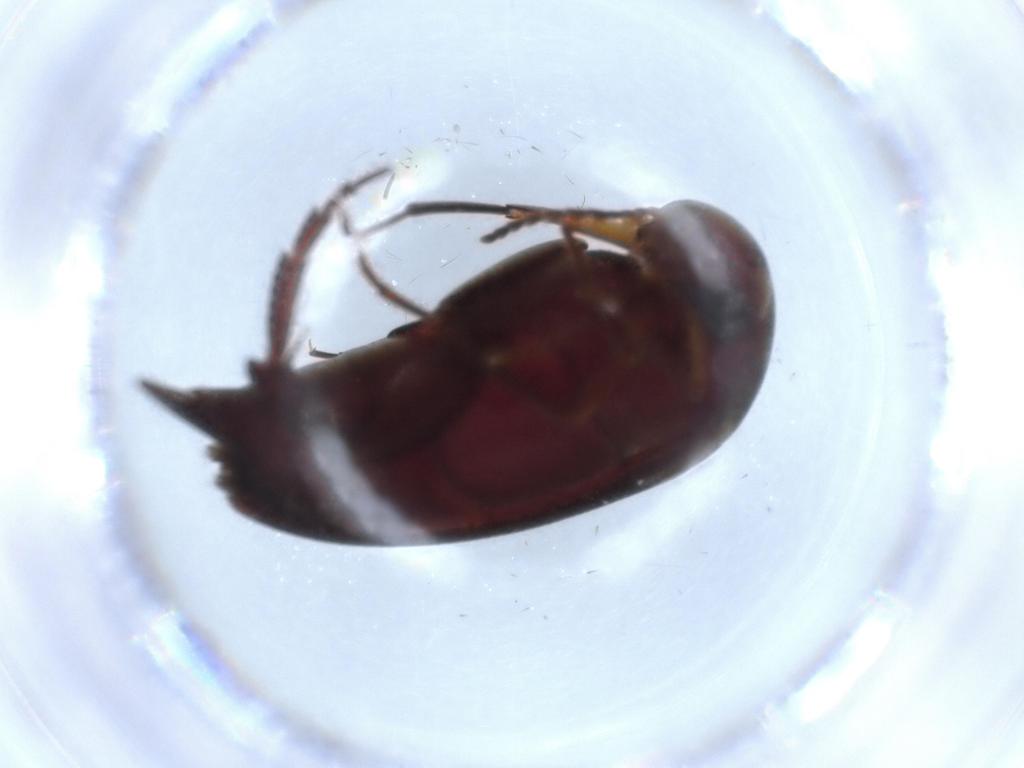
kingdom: Animalia
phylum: Arthropoda
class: Insecta
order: Coleoptera
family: Mordellidae
